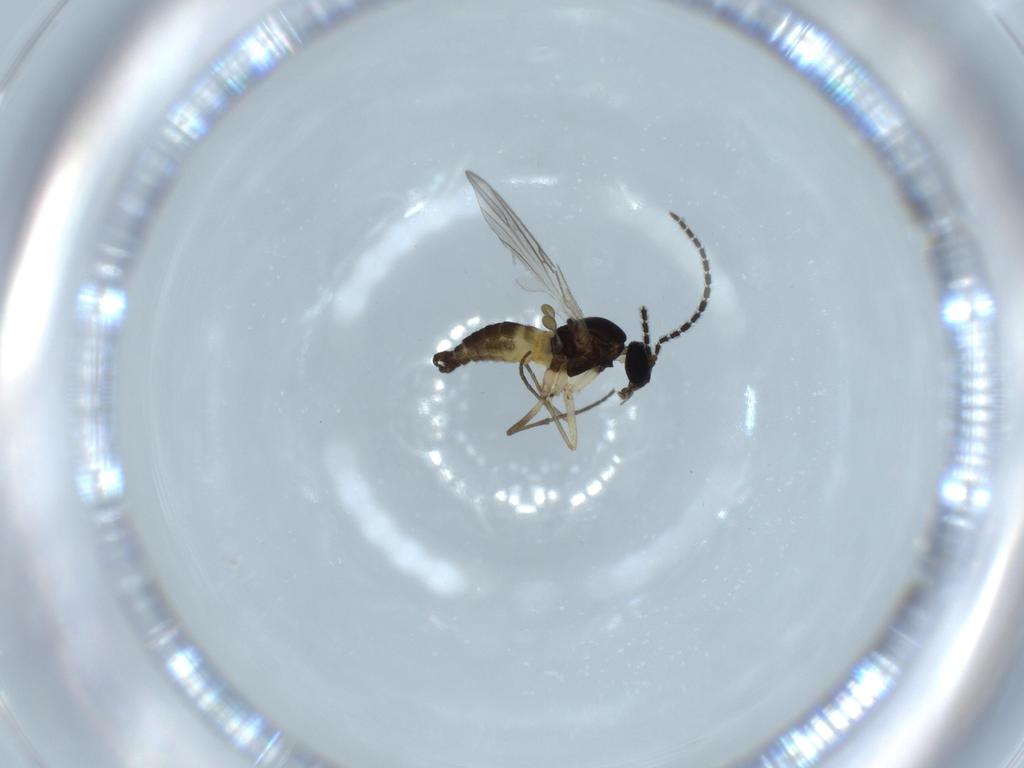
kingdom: Animalia
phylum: Arthropoda
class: Insecta
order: Diptera
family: Sciaridae
